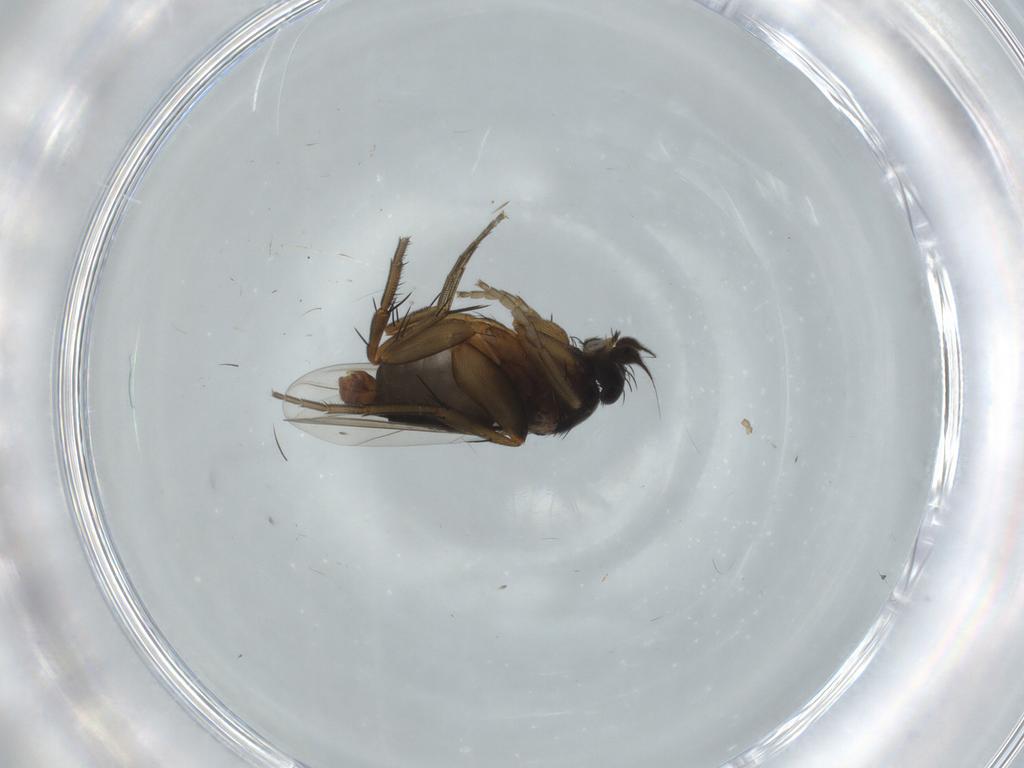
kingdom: Animalia
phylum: Arthropoda
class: Insecta
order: Diptera
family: Phoridae
